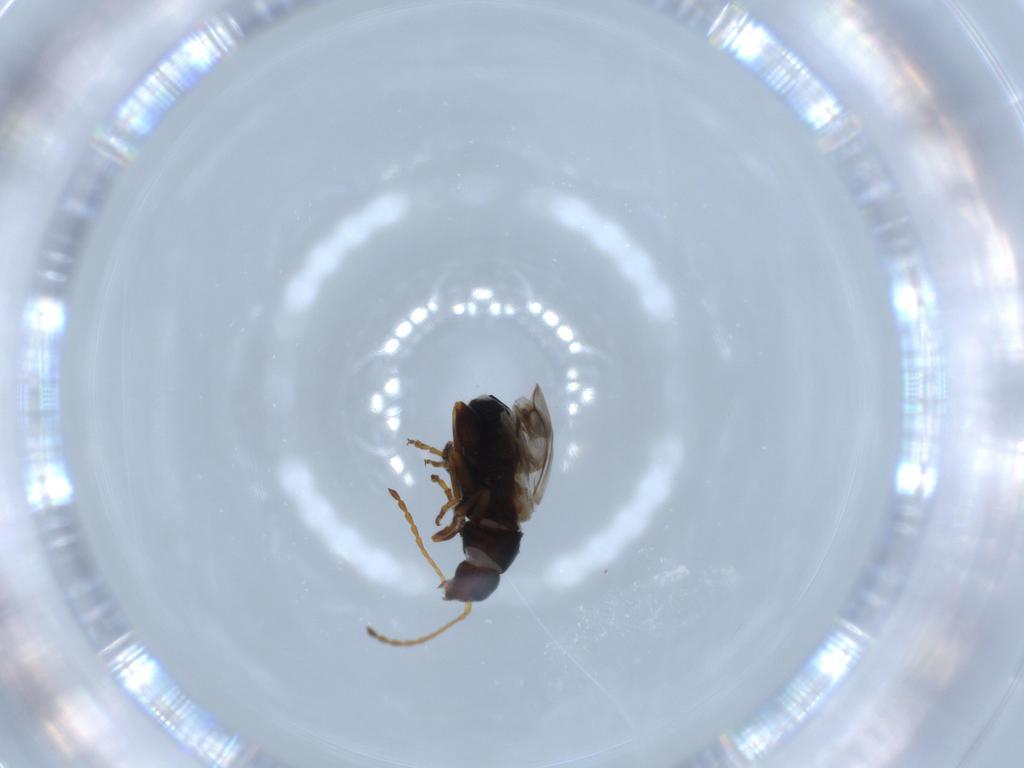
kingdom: Animalia
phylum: Arthropoda
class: Insecta
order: Coleoptera
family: Chrysomelidae
